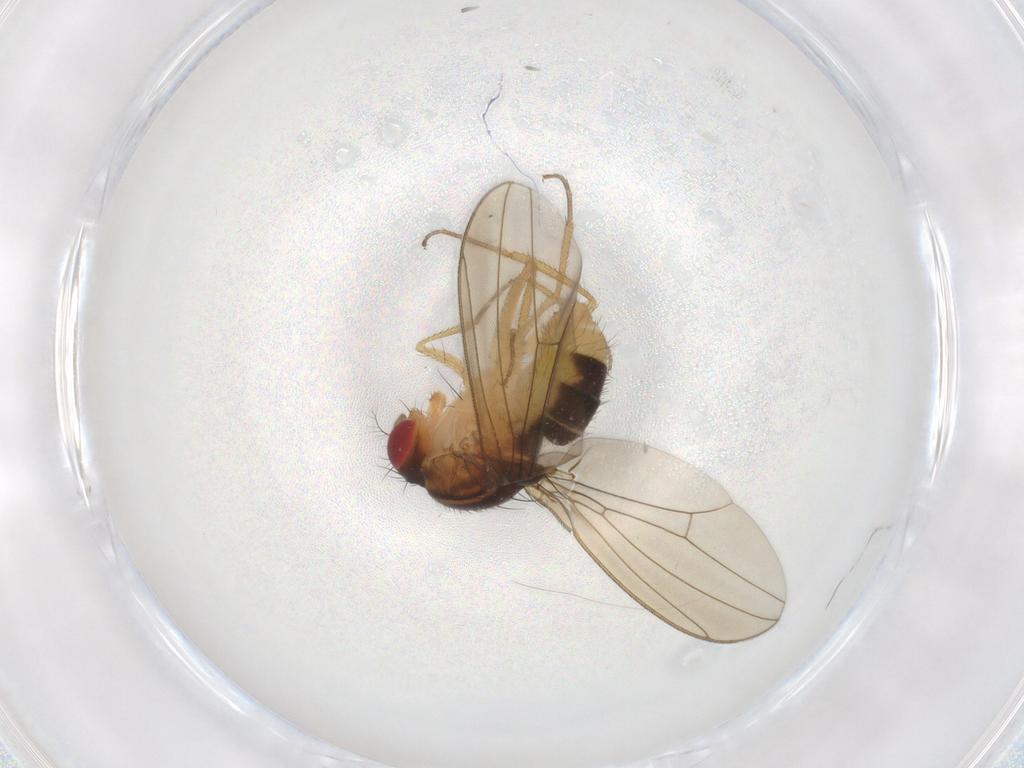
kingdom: Animalia
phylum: Arthropoda
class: Insecta
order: Diptera
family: Drosophilidae
